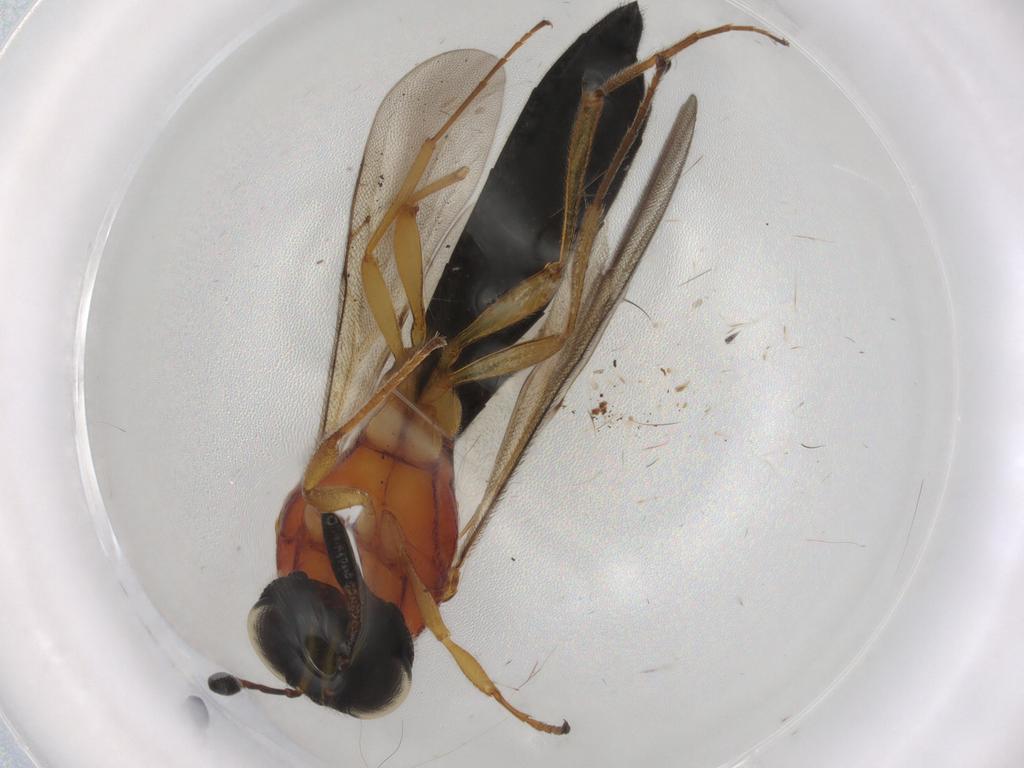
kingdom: Animalia
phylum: Arthropoda
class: Insecta
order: Hymenoptera
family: Scelionidae
